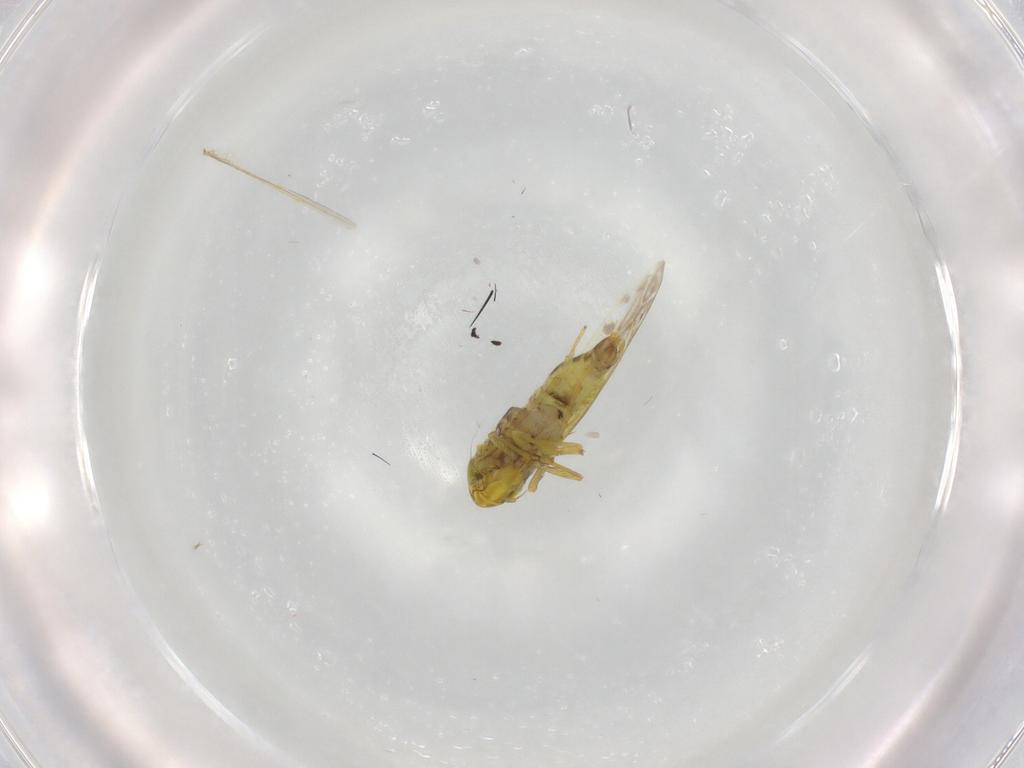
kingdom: Animalia
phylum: Arthropoda
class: Insecta
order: Hemiptera
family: Cicadellidae
